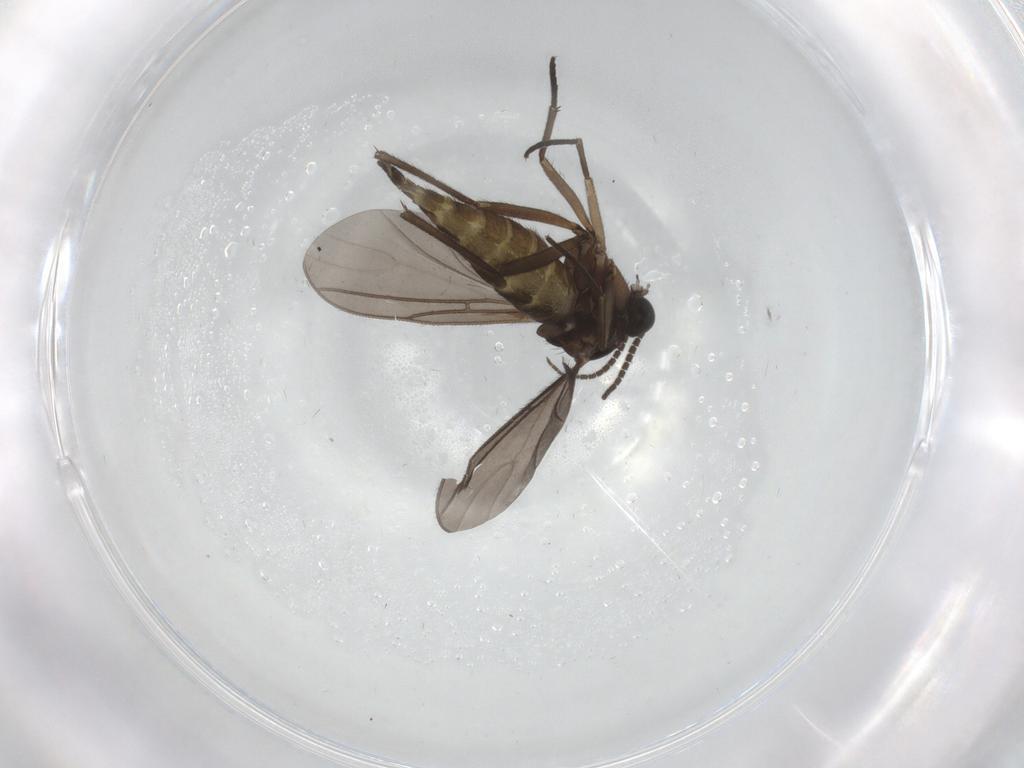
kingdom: Animalia
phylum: Arthropoda
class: Insecta
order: Diptera
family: Sciaridae
